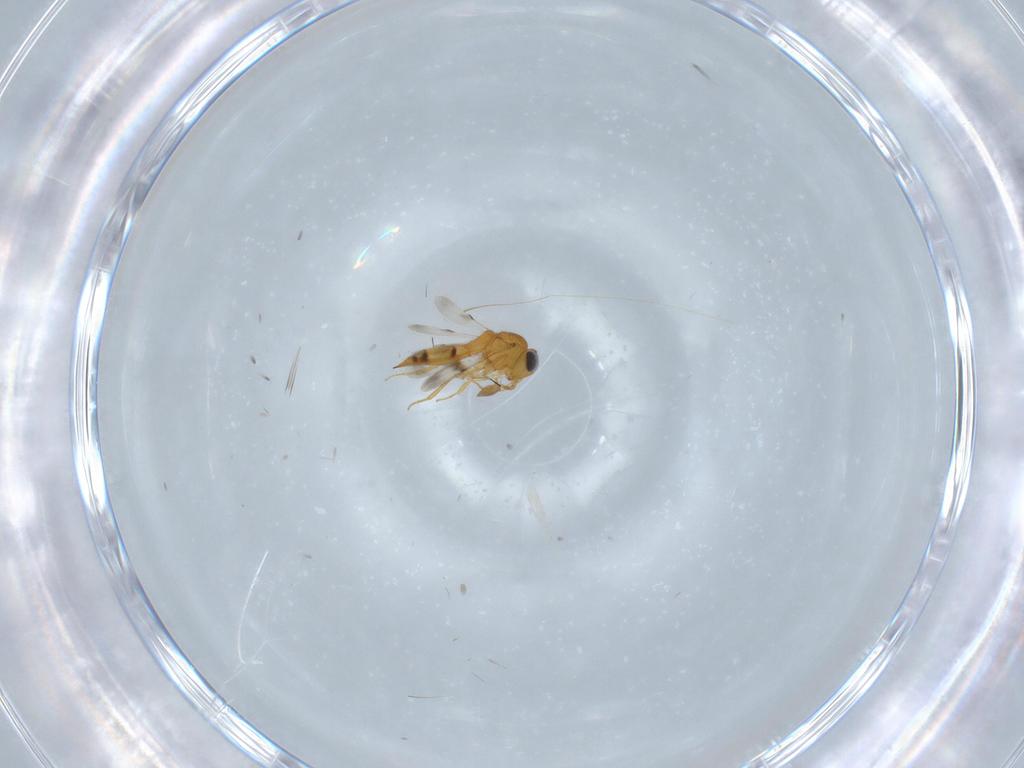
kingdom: Animalia
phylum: Arthropoda
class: Insecta
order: Hymenoptera
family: Scelionidae
